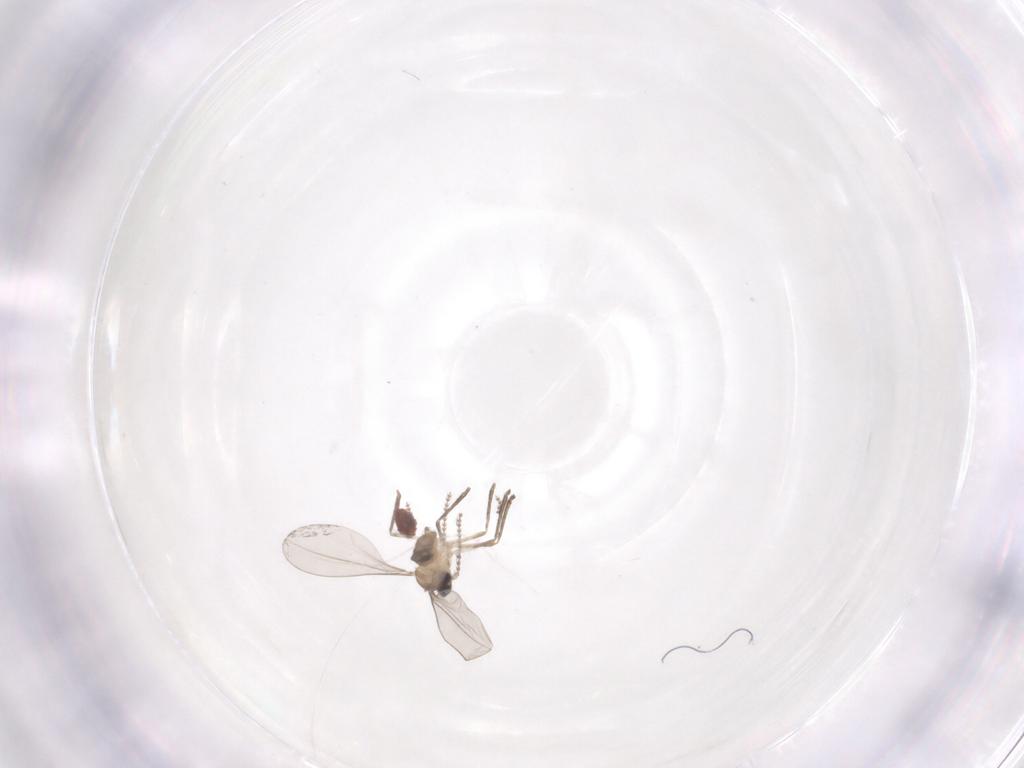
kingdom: Animalia
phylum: Arthropoda
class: Insecta
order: Diptera
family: Cecidomyiidae
